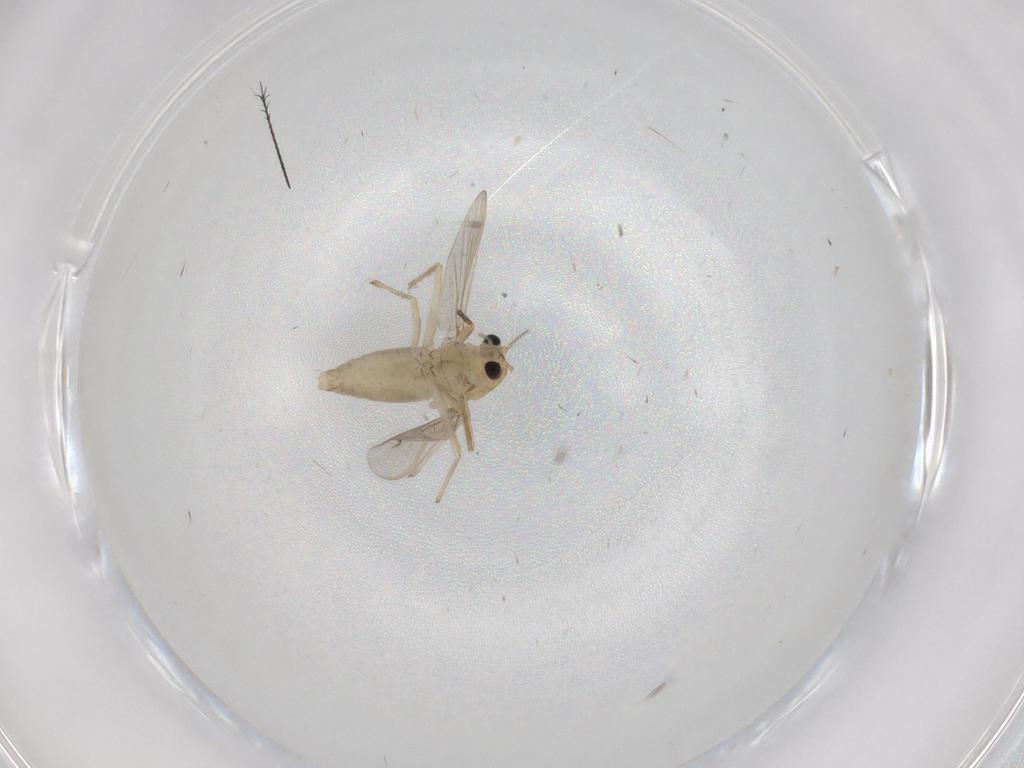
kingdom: Animalia
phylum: Arthropoda
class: Insecta
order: Diptera
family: Chironomidae
